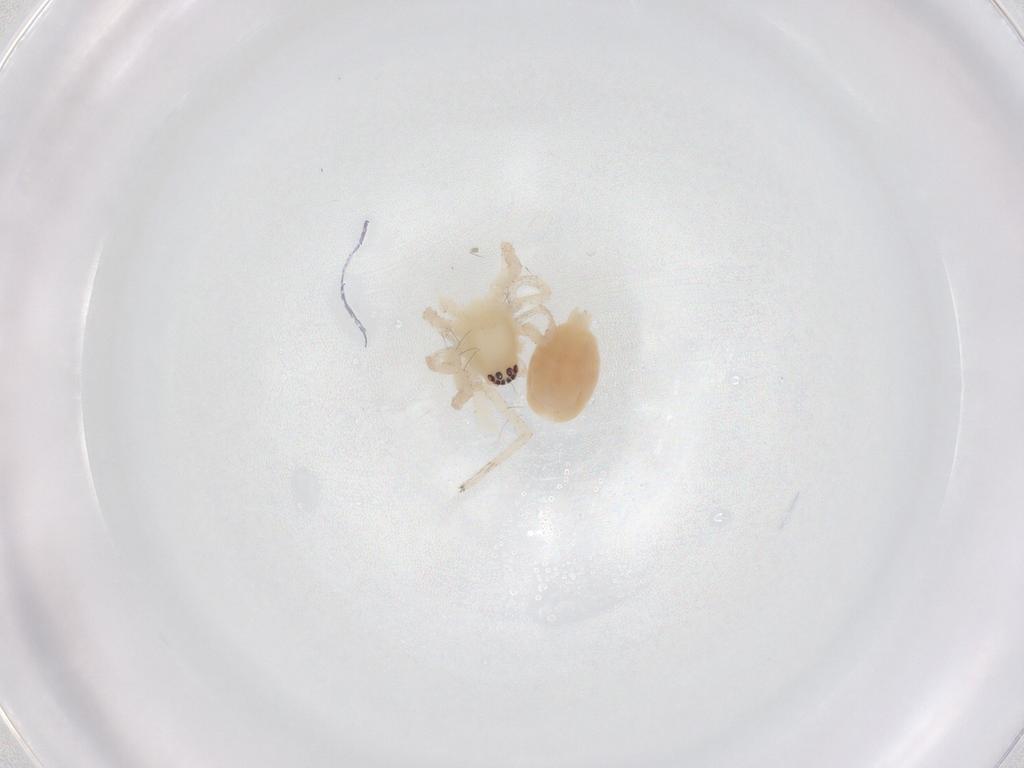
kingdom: Animalia
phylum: Arthropoda
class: Arachnida
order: Araneae
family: Anyphaenidae
